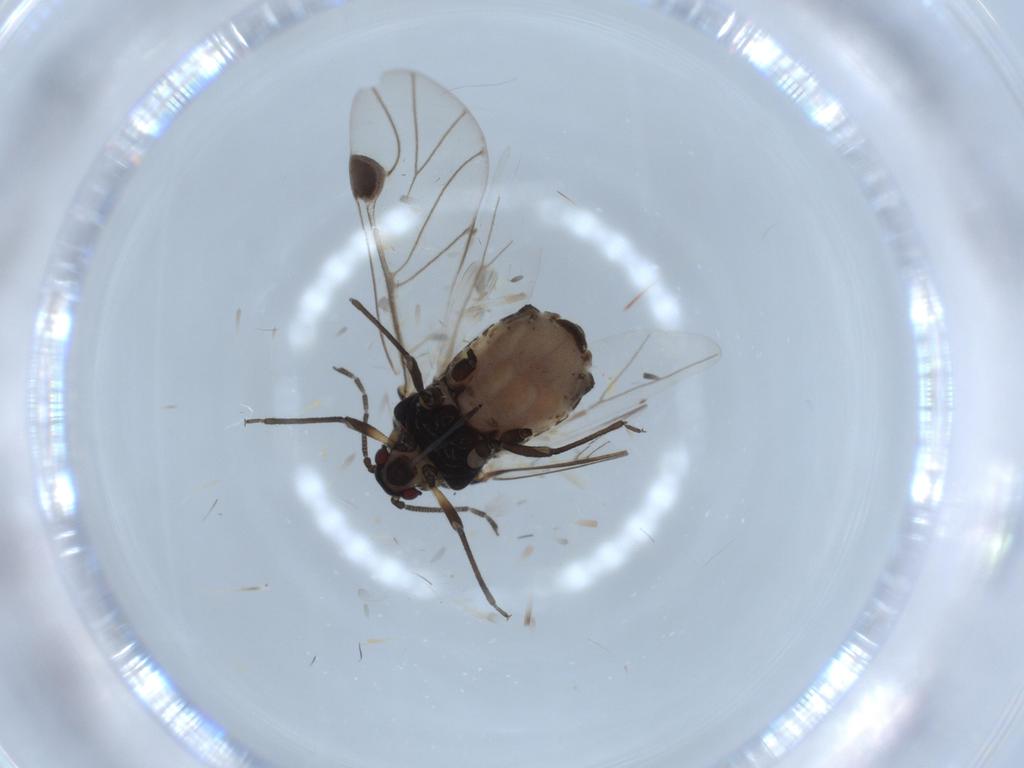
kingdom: Animalia
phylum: Arthropoda
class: Insecta
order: Hemiptera
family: Aphididae
